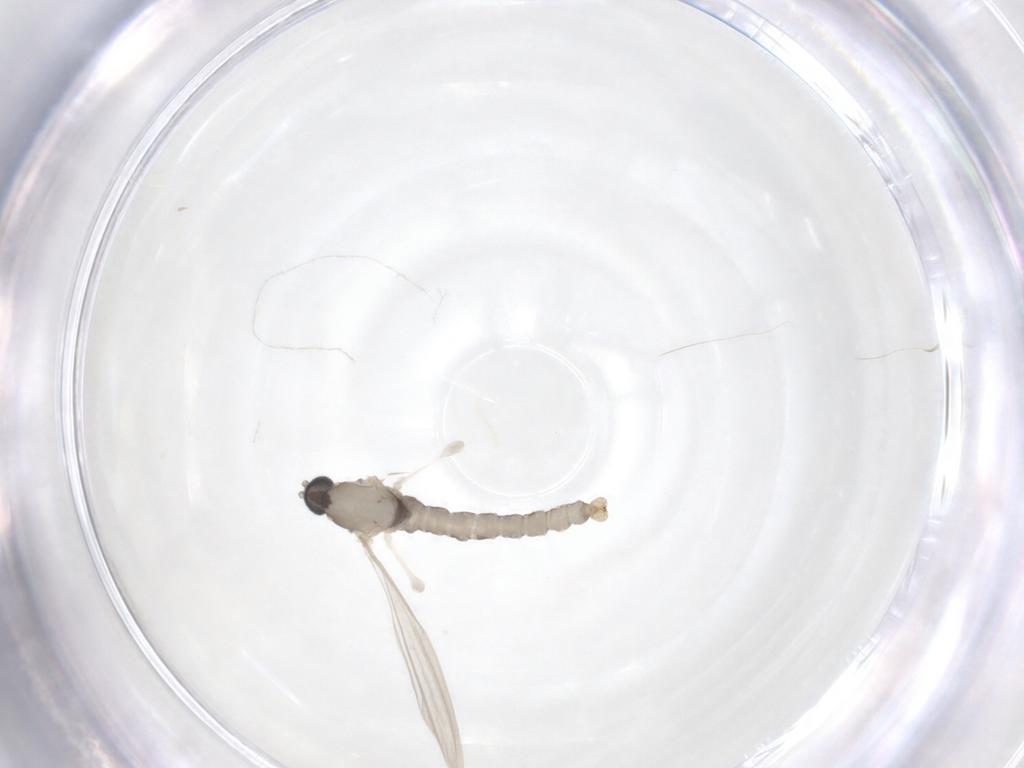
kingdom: Animalia
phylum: Arthropoda
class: Insecta
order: Diptera
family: Cecidomyiidae
